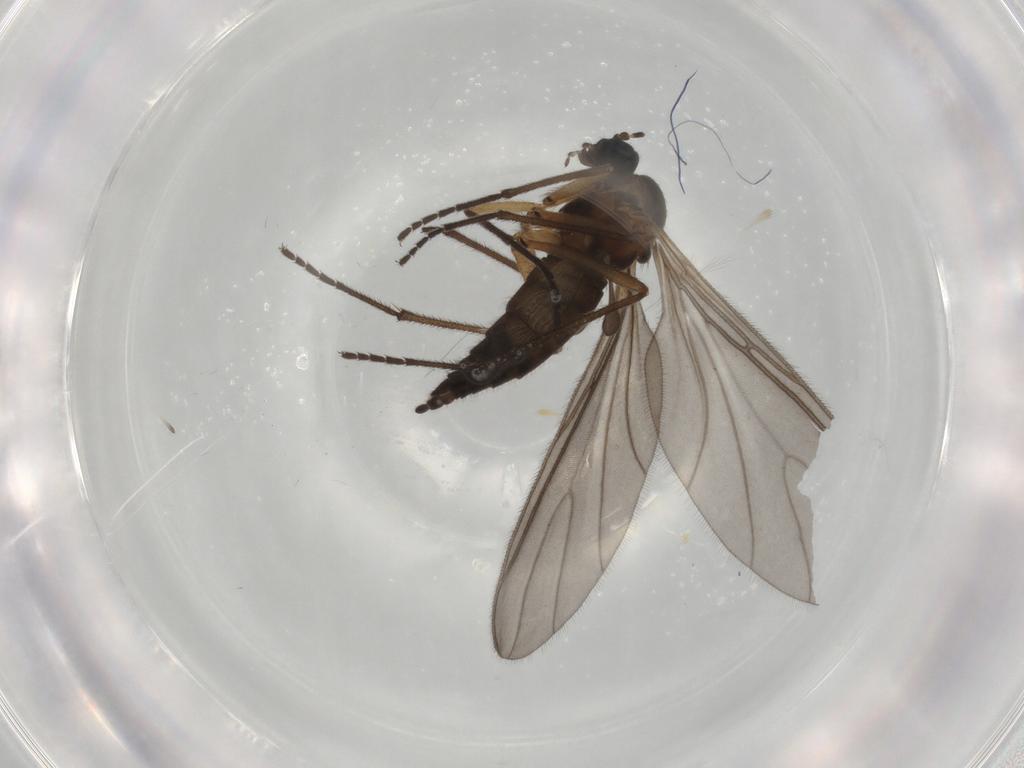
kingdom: Animalia
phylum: Arthropoda
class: Insecta
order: Diptera
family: Sciaridae
